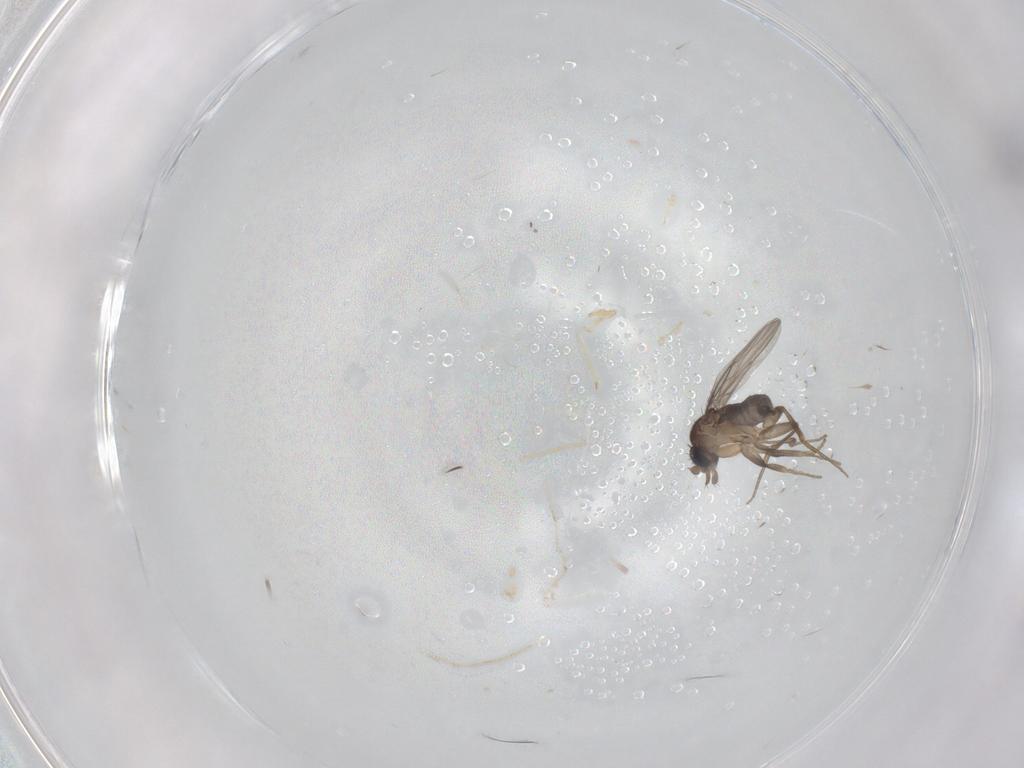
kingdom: Animalia
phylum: Arthropoda
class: Insecta
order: Diptera
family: Phoridae
